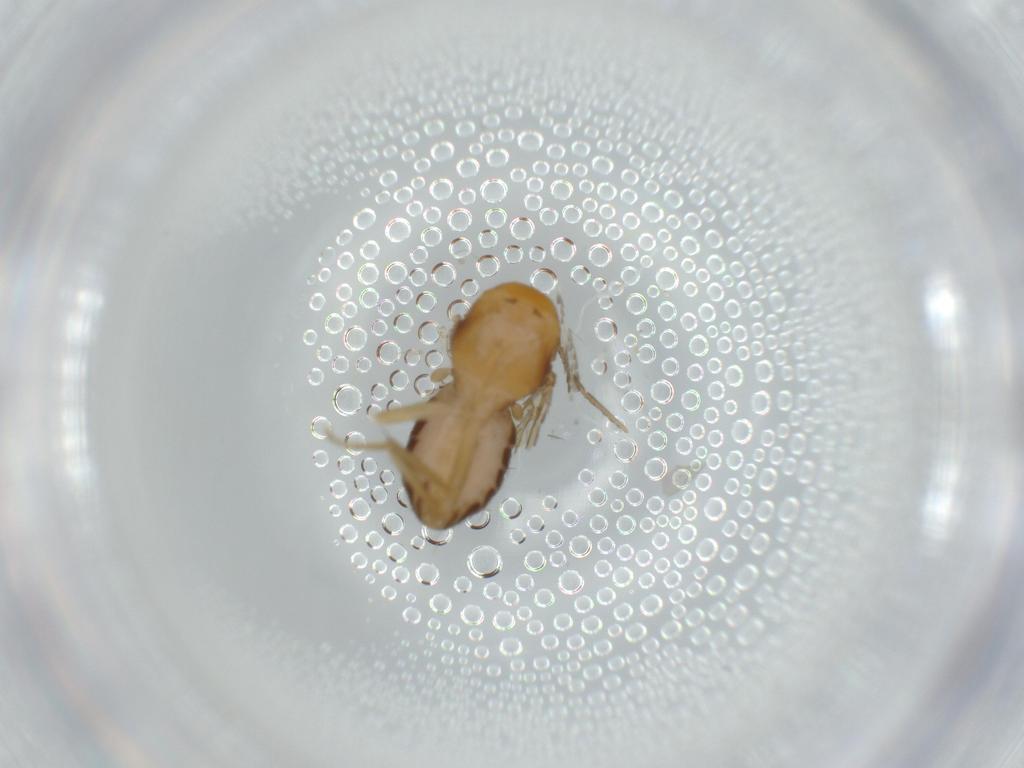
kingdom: Animalia
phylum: Arthropoda
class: Insecta
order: Diptera
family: Drosophilidae
